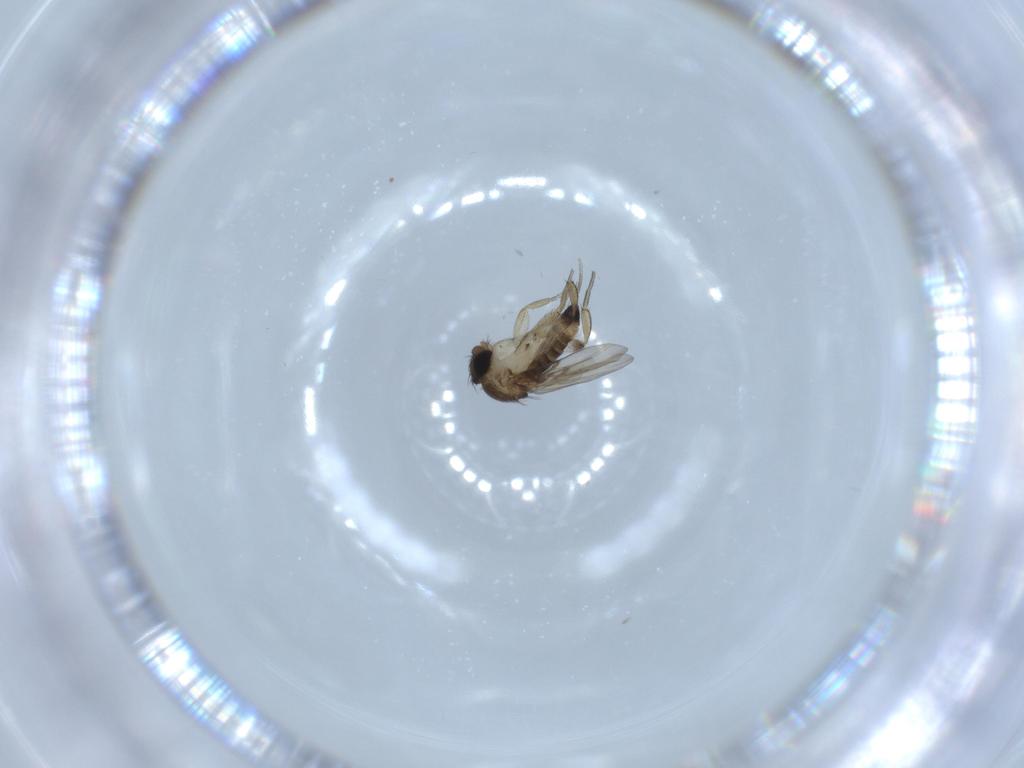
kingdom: Animalia
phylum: Arthropoda
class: Insecta
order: Diptera
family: Phoridae
